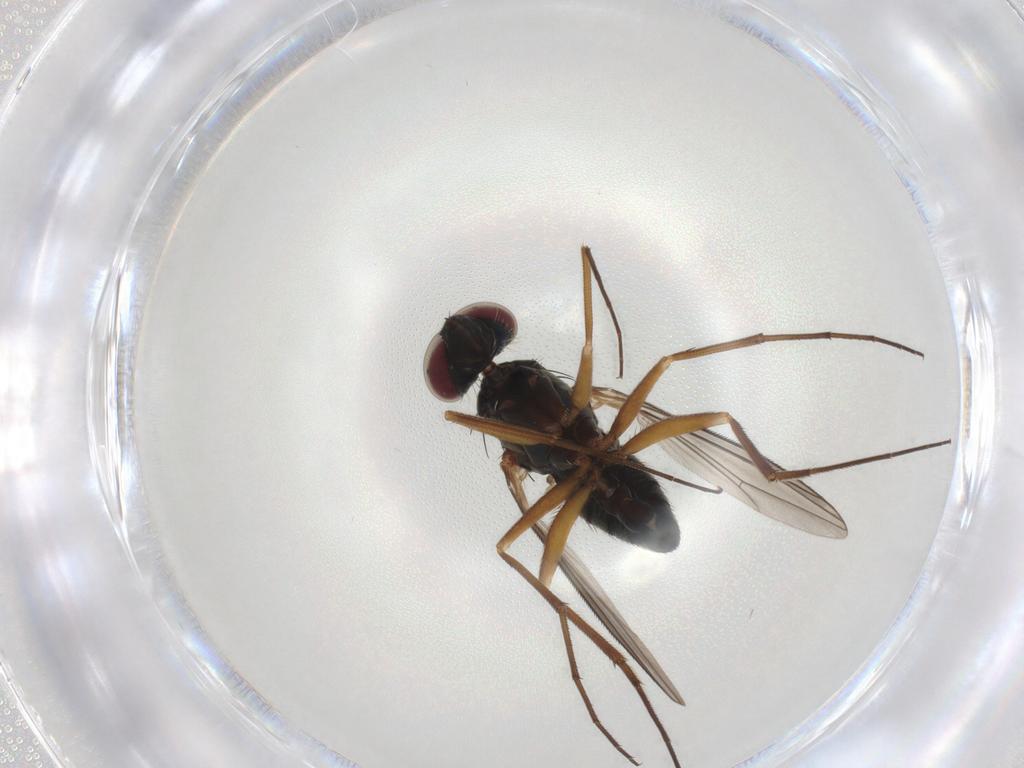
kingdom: Animalia
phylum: Arthropoda
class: Insecta
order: Diptera
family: Dolichopodidae
